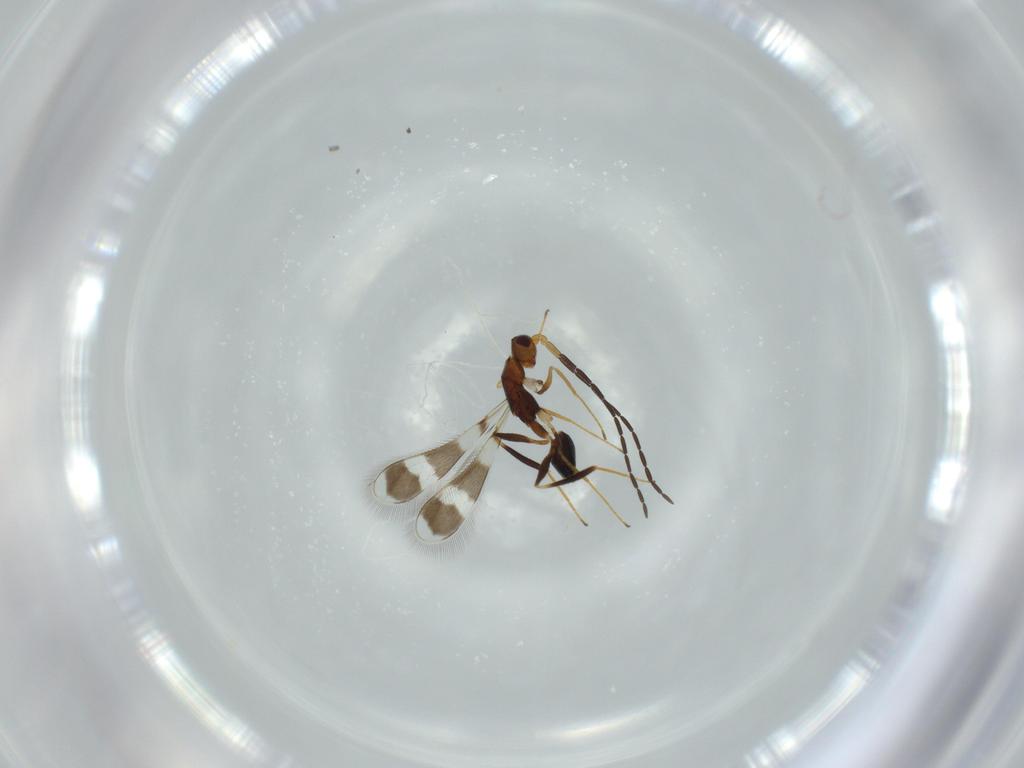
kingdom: Animalia
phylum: Arthropoda
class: Insecta
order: Hymenoptera
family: Mymaridae
